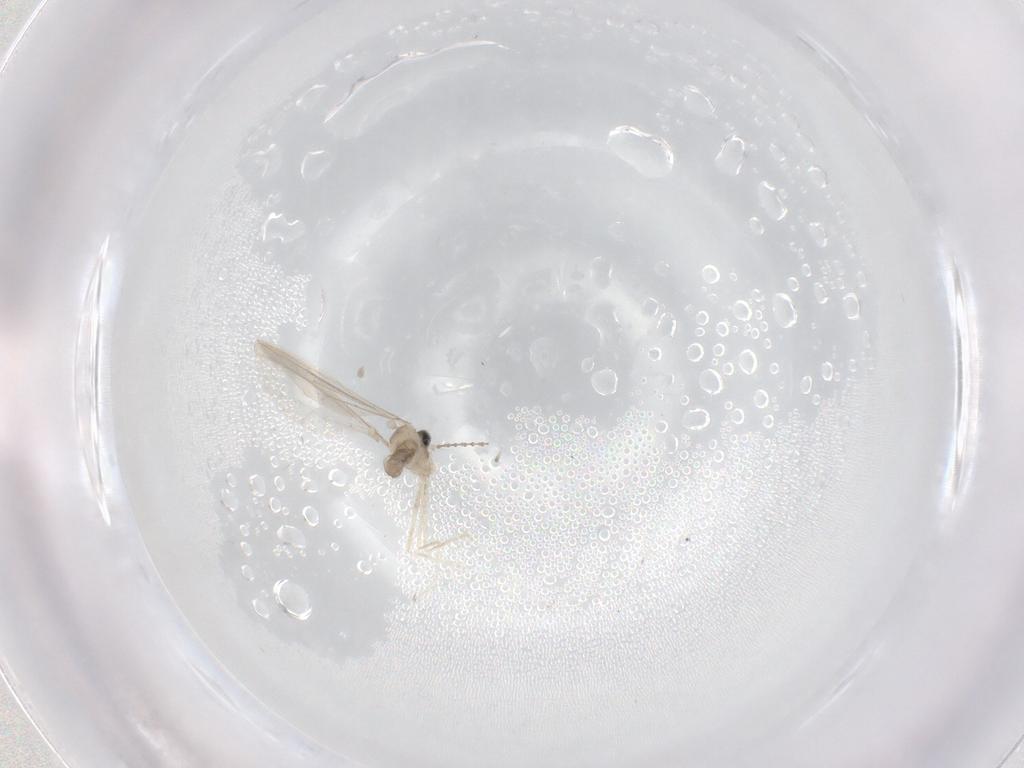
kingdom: Animalia
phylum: Arthropoda
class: Insecta
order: Diptera
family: Cecidomyiidae
